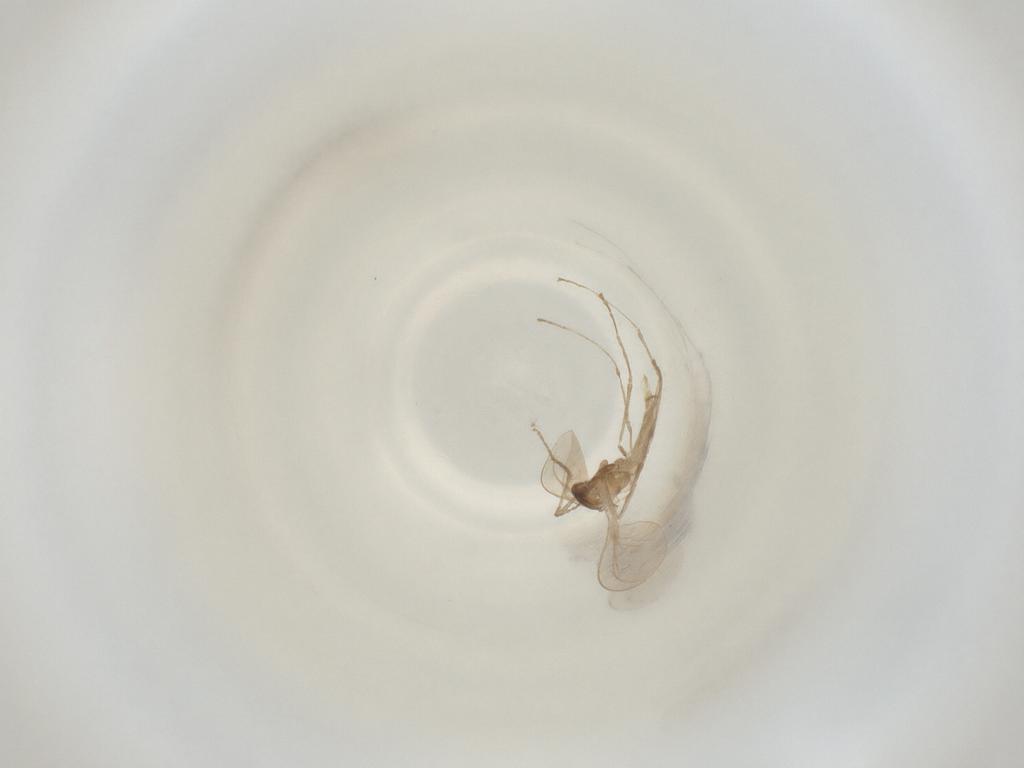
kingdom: Animalia
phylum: Arthropoda
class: Insecta
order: Diptera
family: Cecidomyiidae
